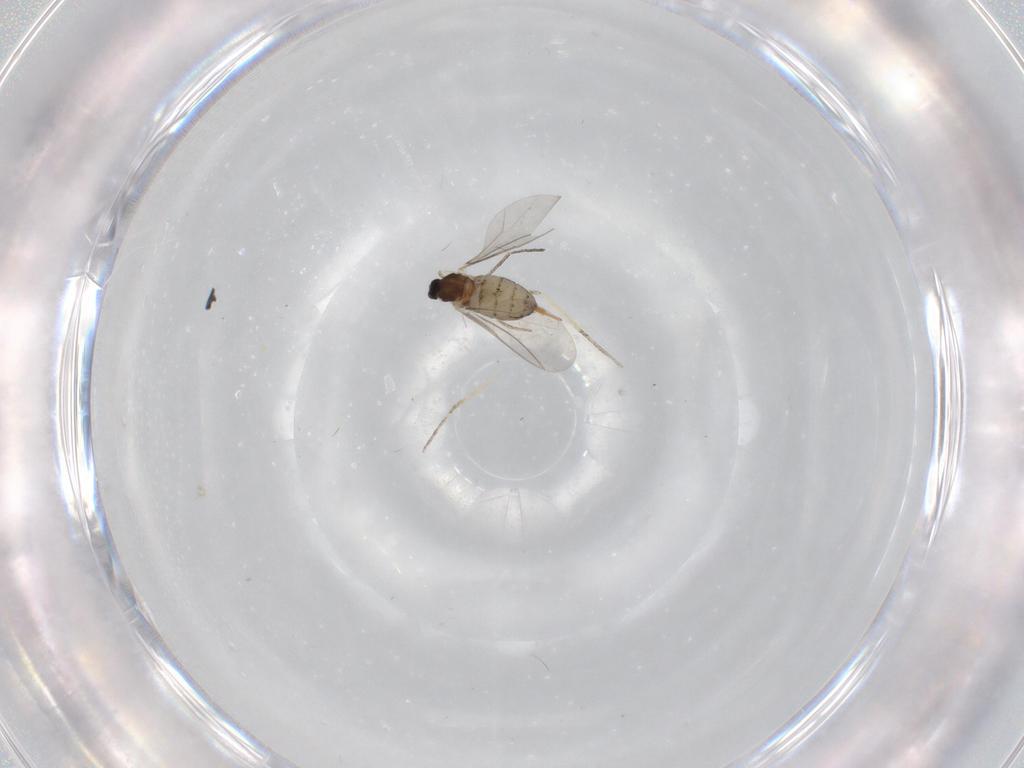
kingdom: Animalia
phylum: Arthropoda
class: Insecta
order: Diptera
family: Cecidomyiidae
